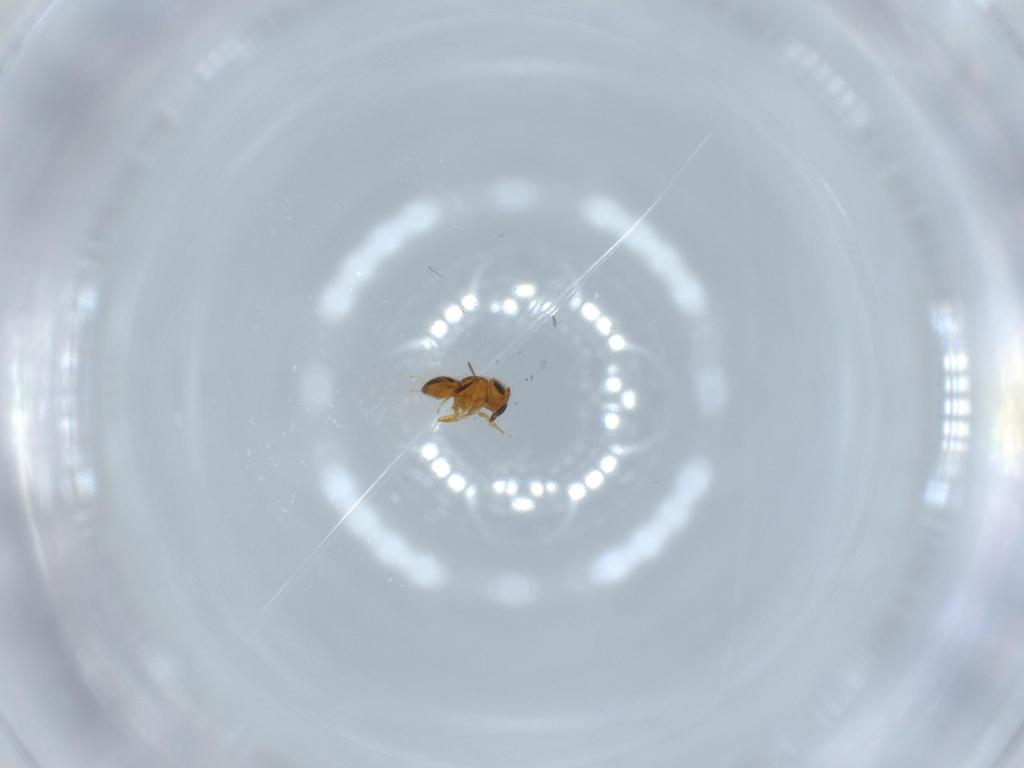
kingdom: Animalia
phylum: Arthropoda
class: Insecta
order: Hymenoptera
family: Scelionidae
